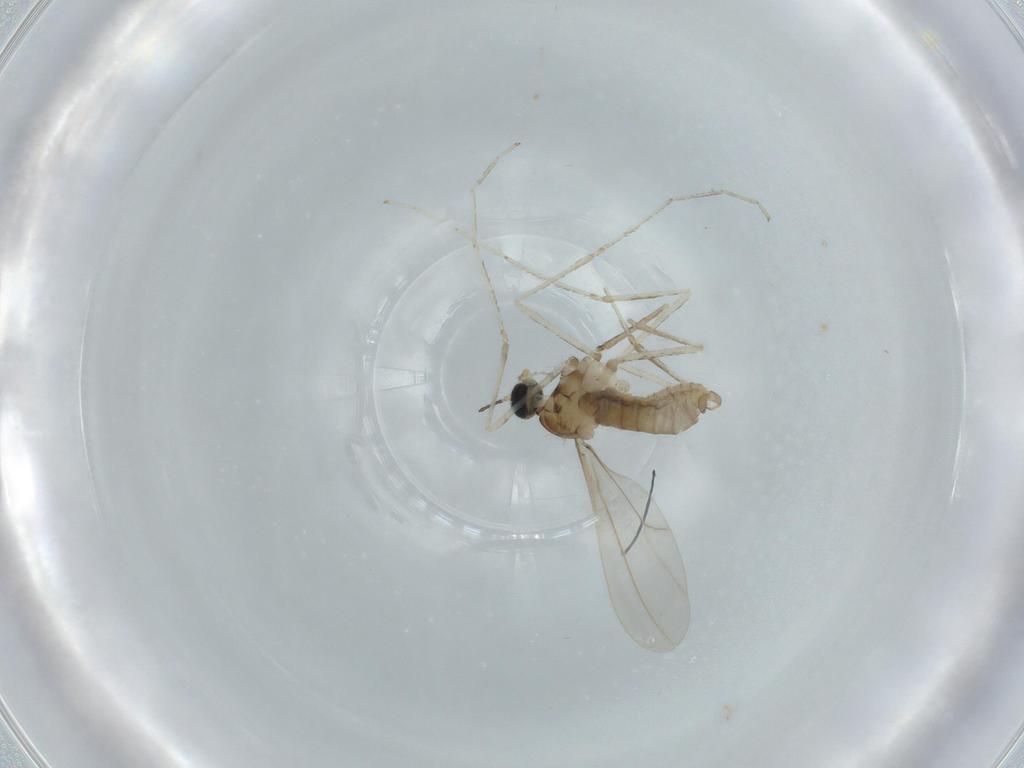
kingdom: Animalia
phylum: Arthropoda
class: Insecta
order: Diptera
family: Cecidomyiidae
